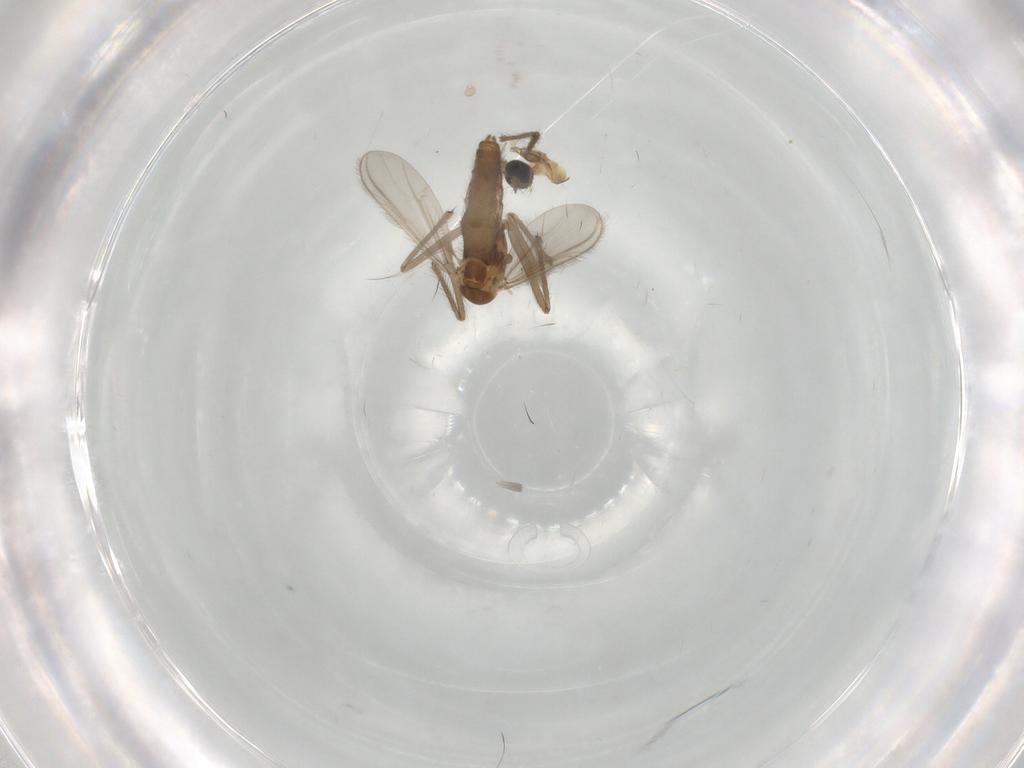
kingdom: Animalia
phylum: Arthropoda
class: Insecta
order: Diptera
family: Chironomidae
